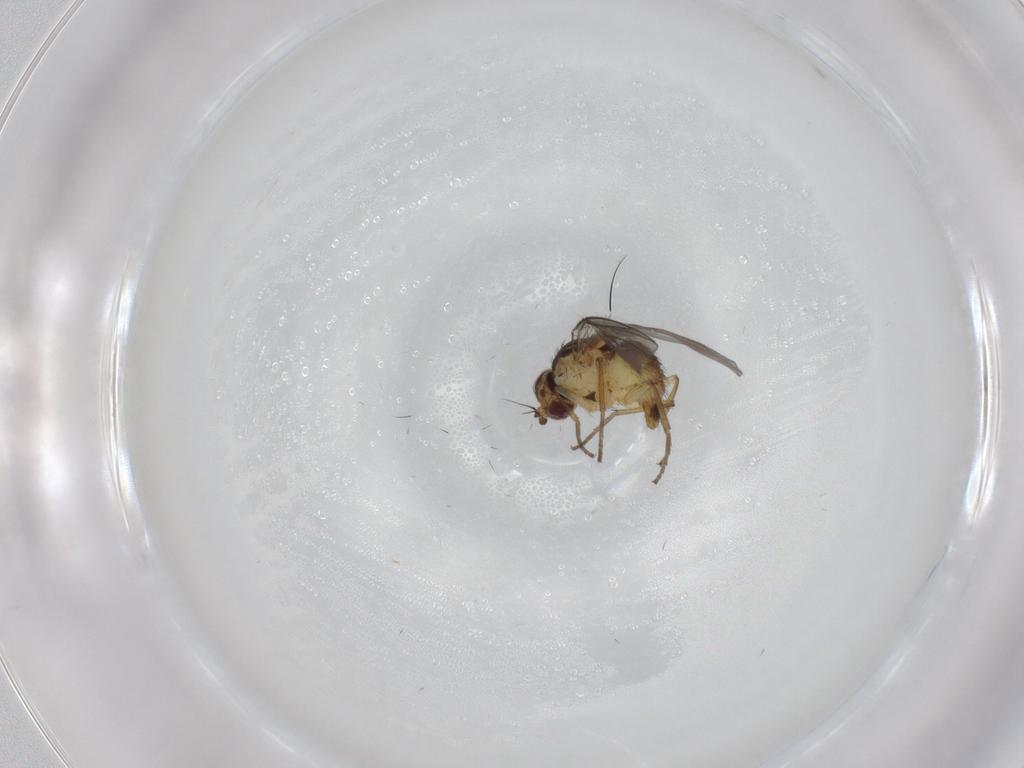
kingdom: Animalia
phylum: Arthropoda
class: Insecta
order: Diptera
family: Agromyzidae
